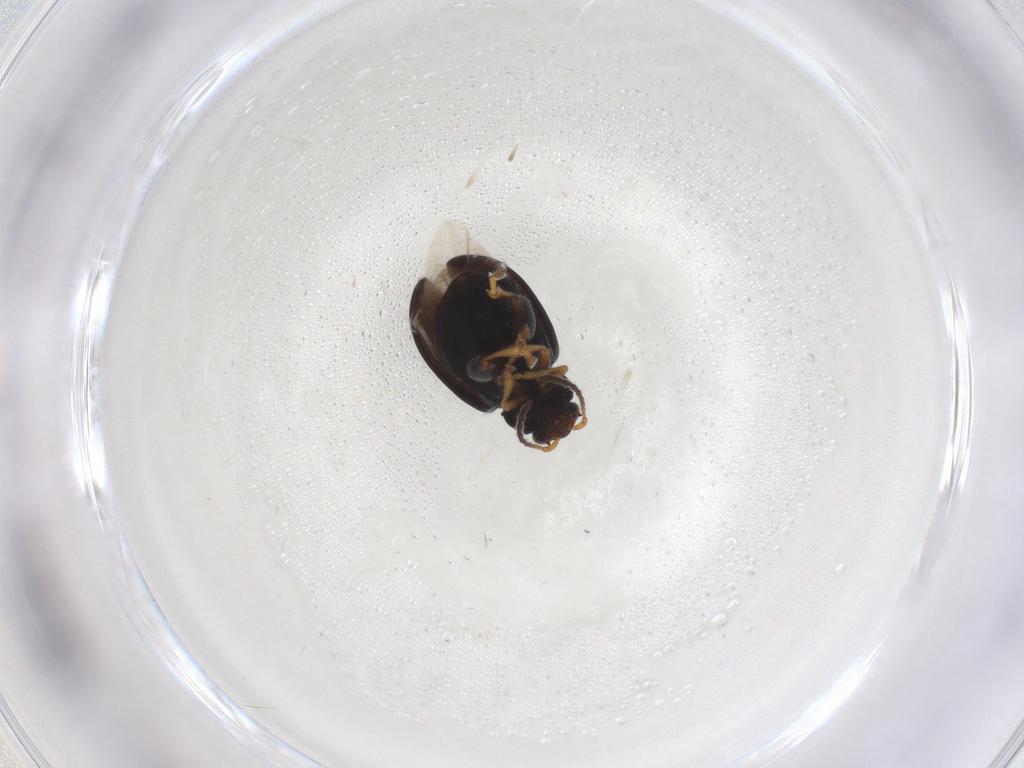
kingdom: Animalia
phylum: Arthropoda
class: Insecta
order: Coleoptera
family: Chrysomelidae
